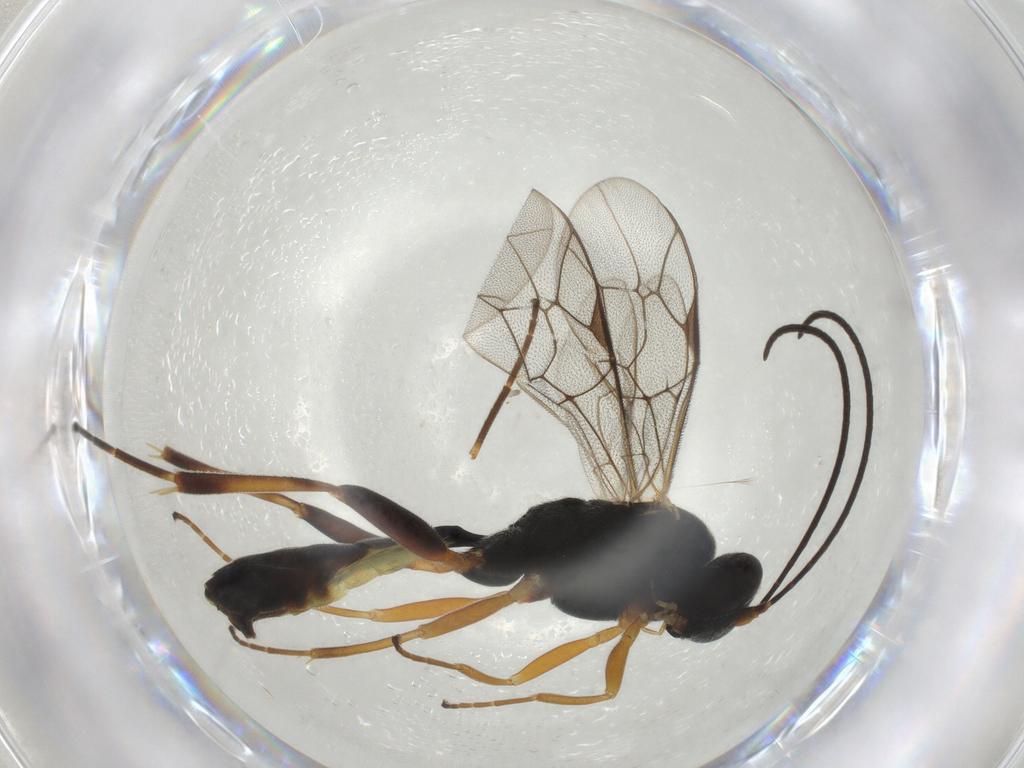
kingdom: Animalia
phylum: Arthropoda
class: Insecta
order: Hymenoptera
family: Ichneumonidae
